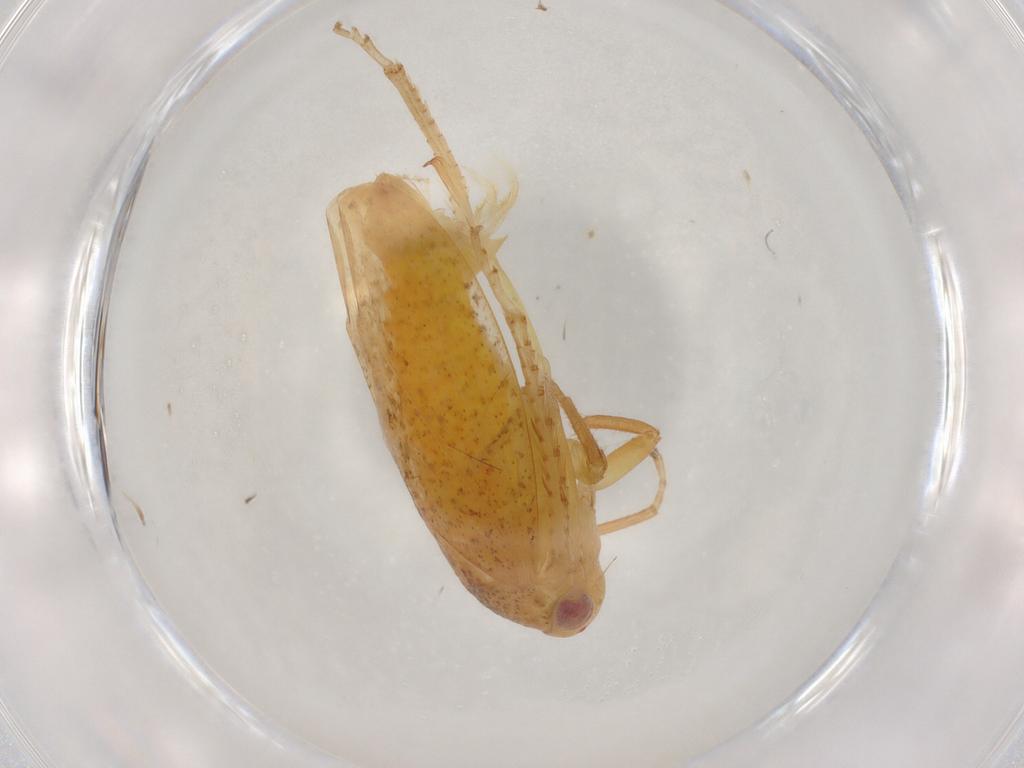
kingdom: Animalia
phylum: Arthropoda
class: Insecta
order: Hemiptera
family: Cicadellidae
